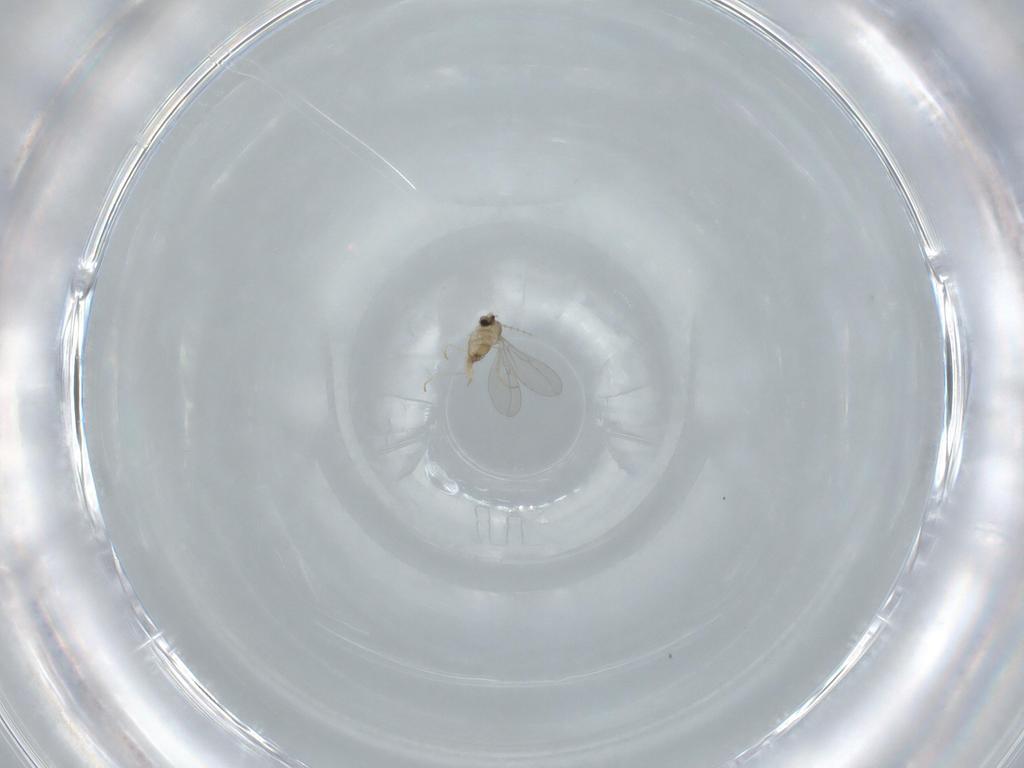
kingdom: Animalia
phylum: Arthropoda
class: Insecta
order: Diptera
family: Cecidomyiidae
